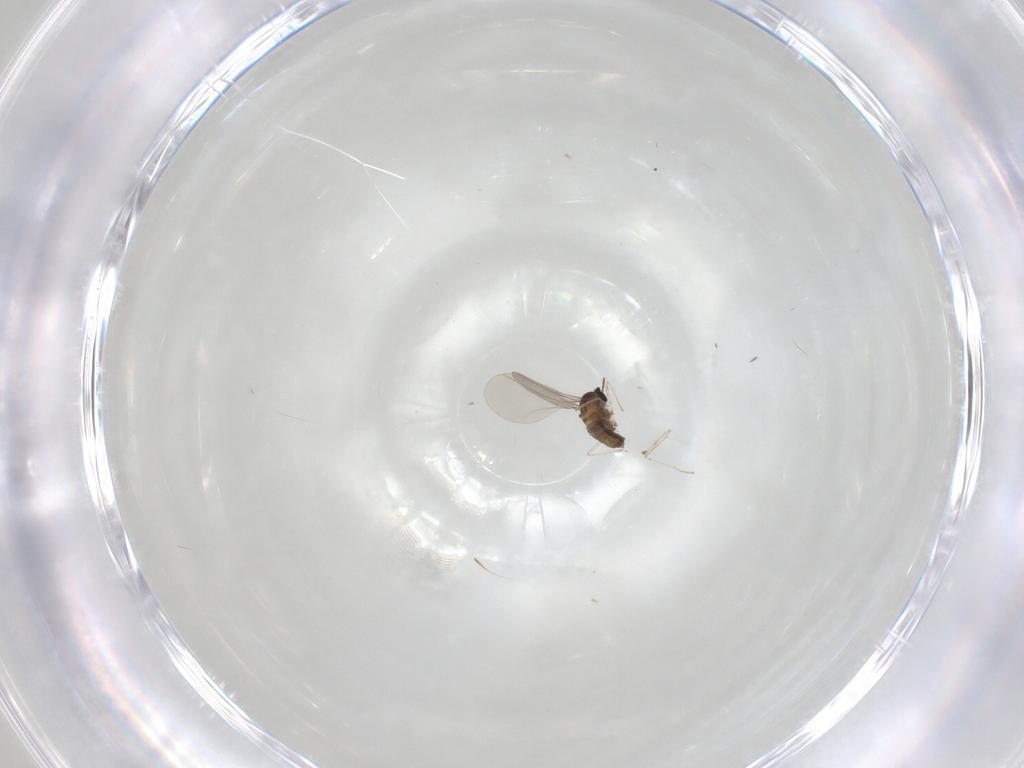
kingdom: Animalia
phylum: Arthropoda
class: Insecta
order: Diptera
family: Cecidomyiidae
